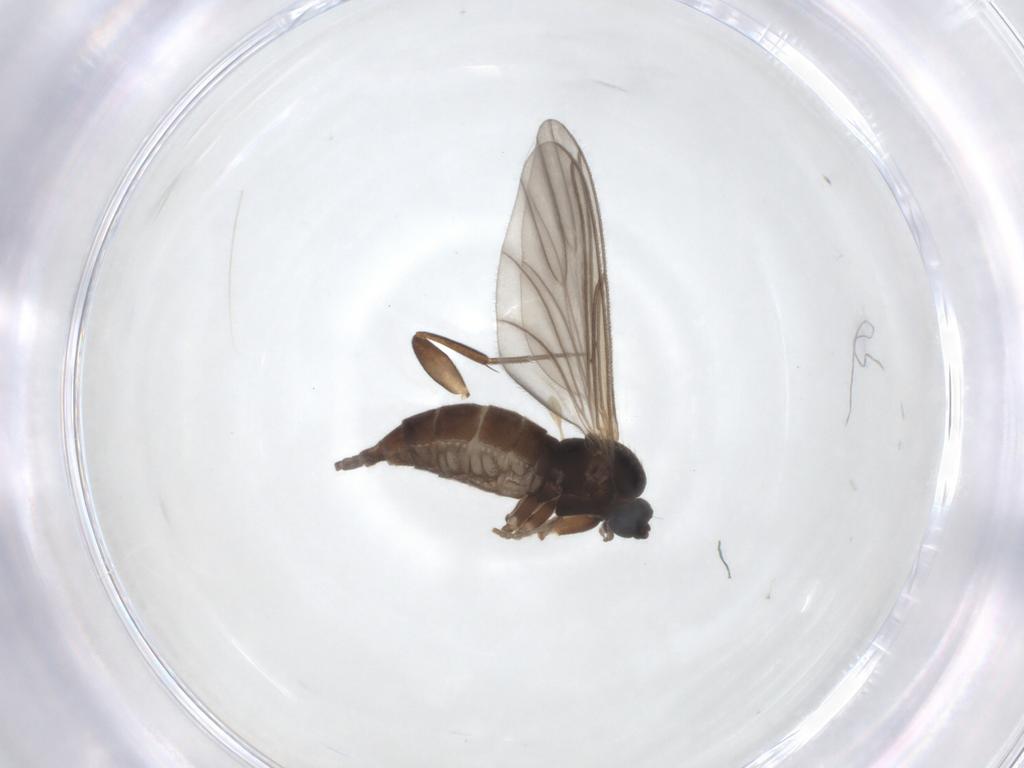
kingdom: Animalia
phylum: Arthropoda
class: Insecta
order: Diptera
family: Sciaridae
